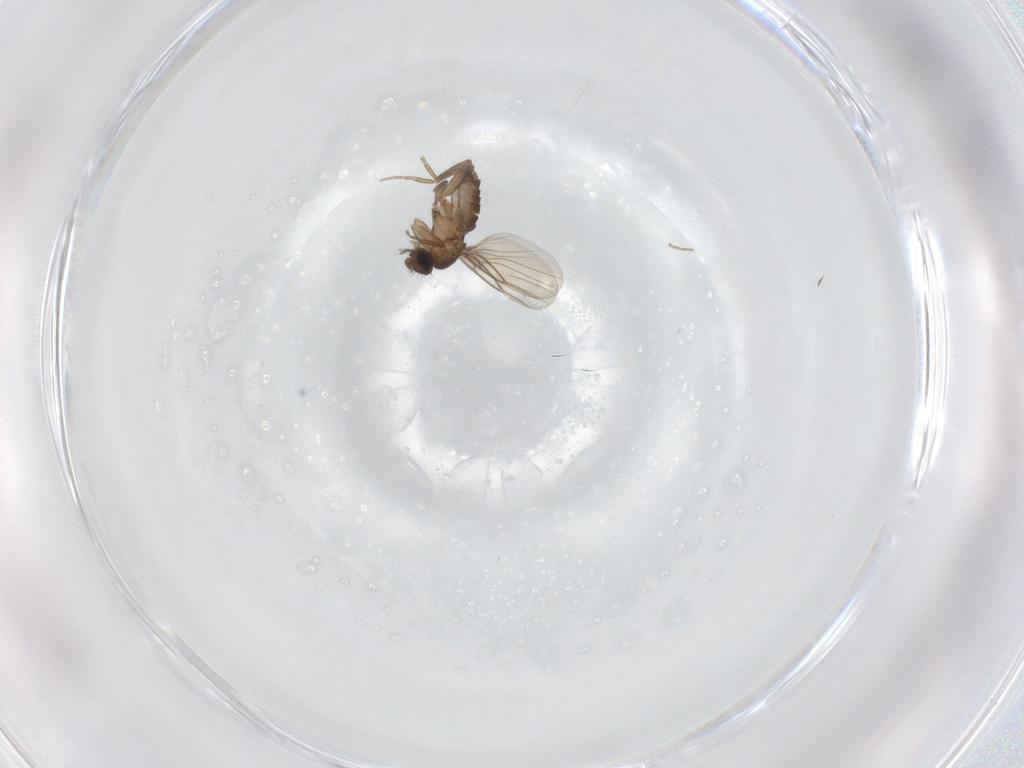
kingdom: Animalia
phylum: Arthropoda
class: Insecta
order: Diptera
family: Phoridae
